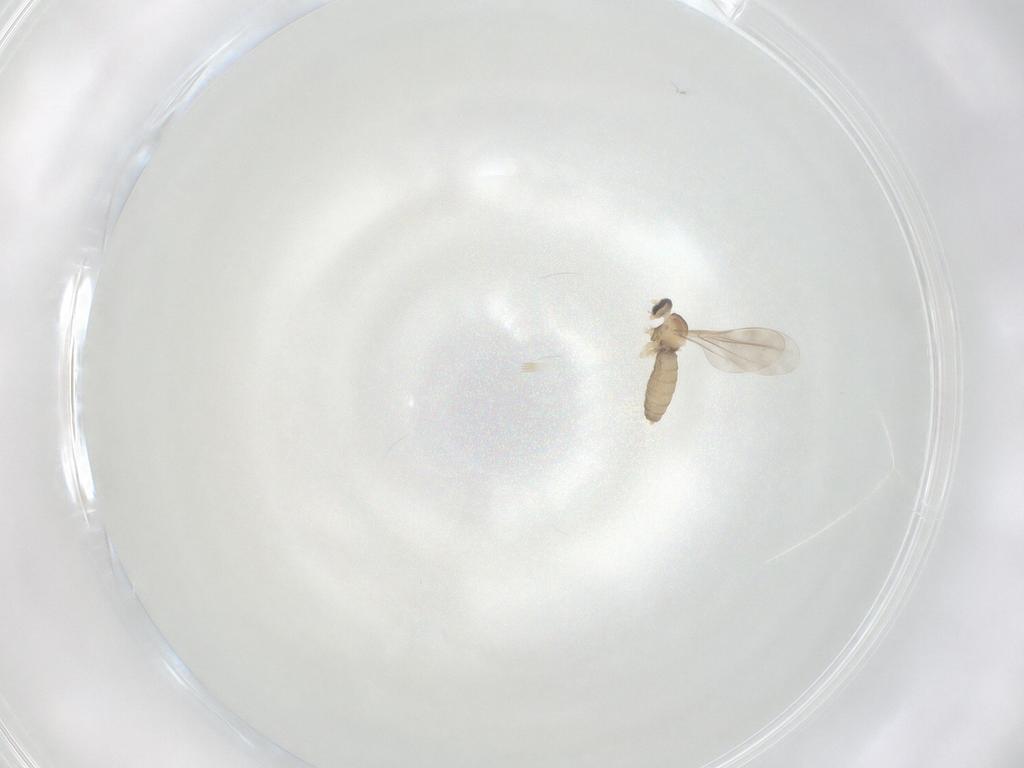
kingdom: Animalia
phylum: Arthropoda
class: Insecta
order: Diptera
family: Cecidomyiidae
